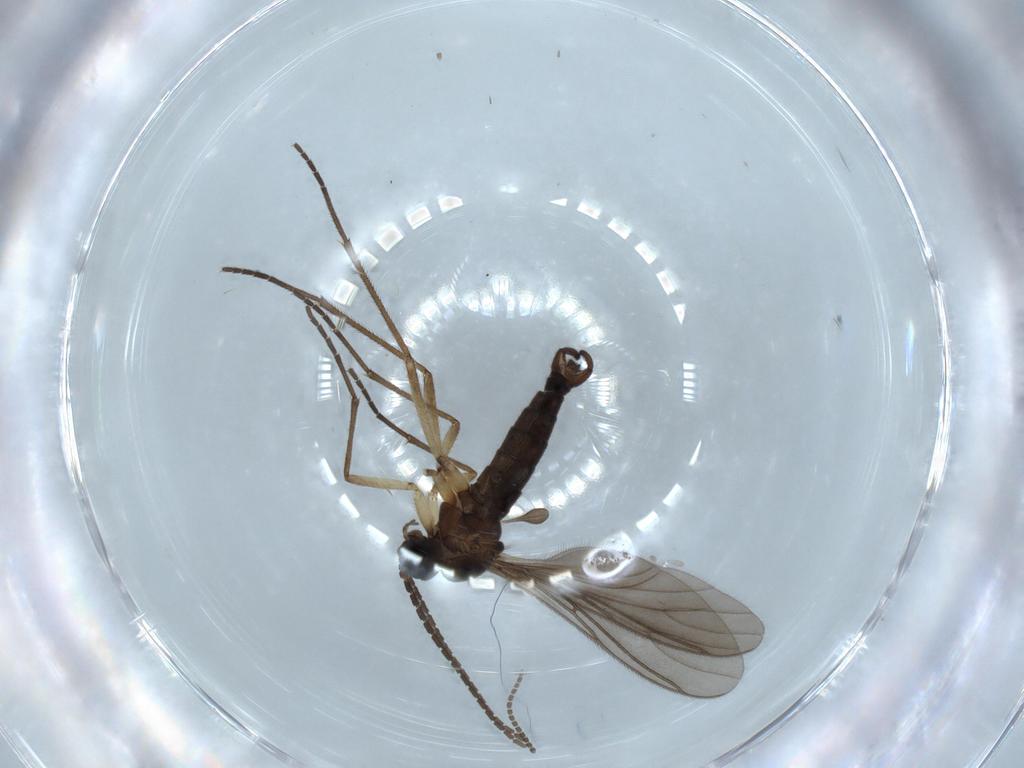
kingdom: Animalia
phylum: Arthropoda
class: Insecta
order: Diptera
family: Sciaridae
